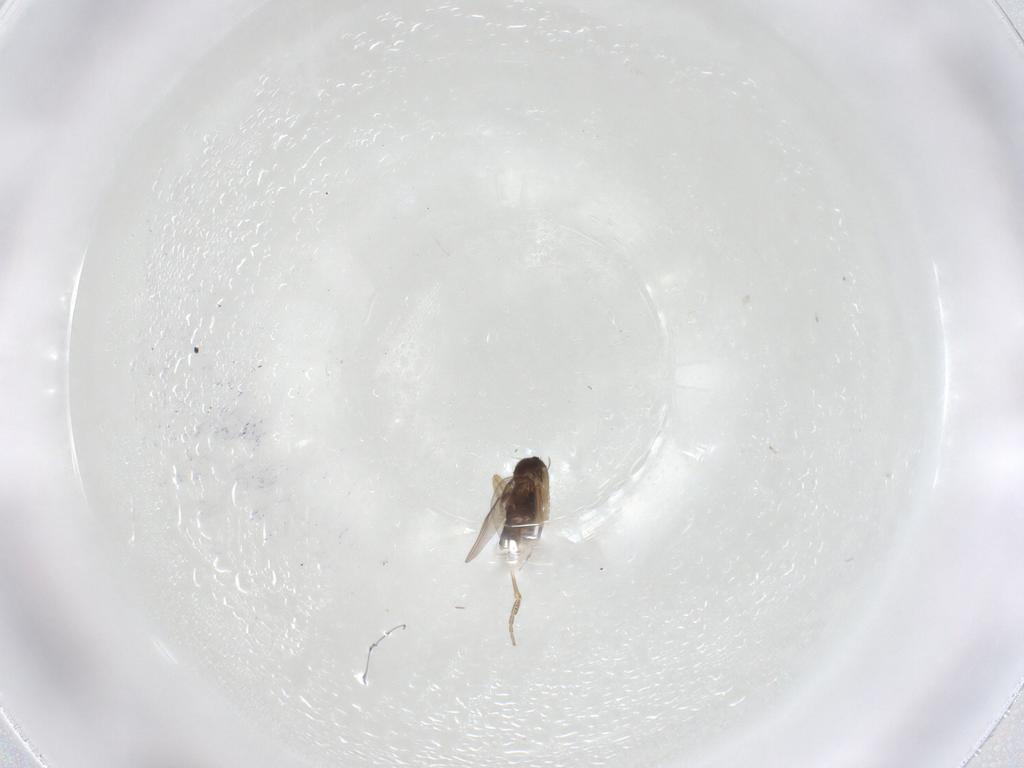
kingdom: Animalia
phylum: Arthropoda
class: Insecta
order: Diptera
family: Phoridae
